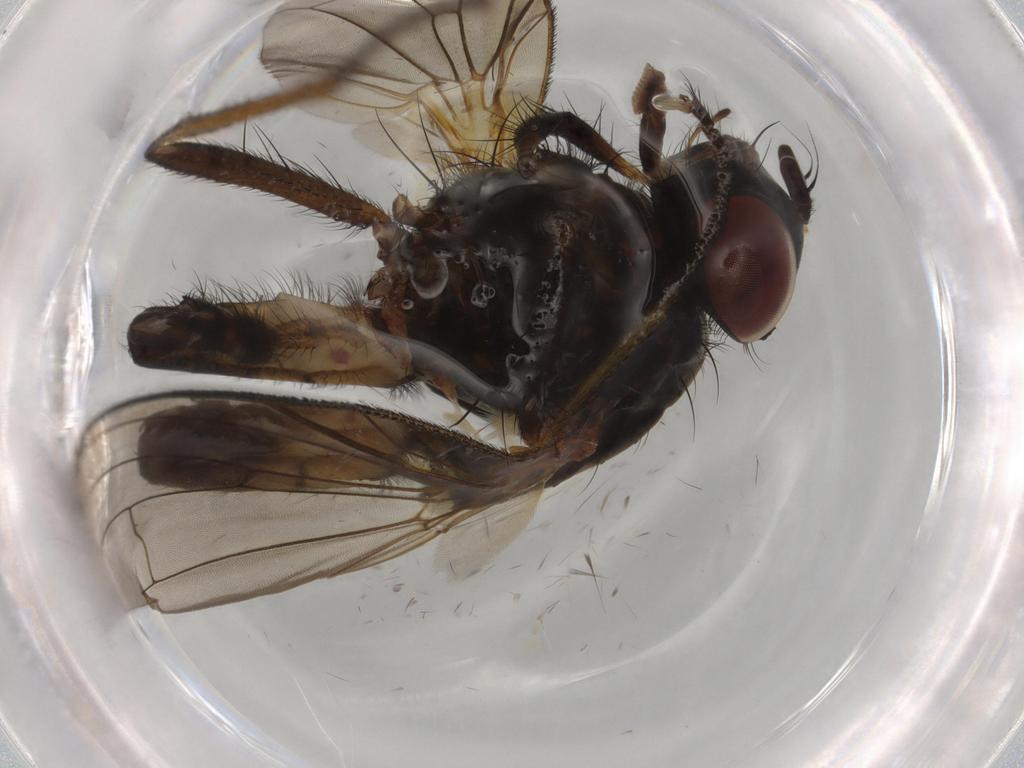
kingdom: Animalia
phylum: Arthropoda
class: Insecta
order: Diptera
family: Anthomyiidae
